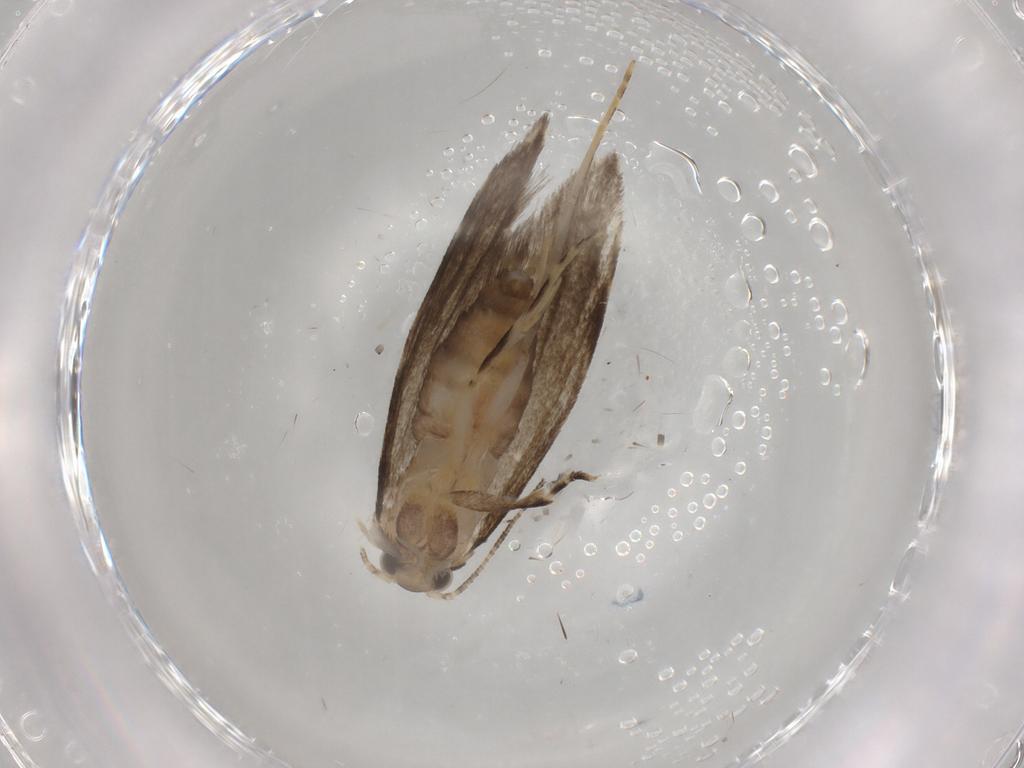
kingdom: Animalia
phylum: Arthropoda
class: Insecta
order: Lepidoptera
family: Tineidae
